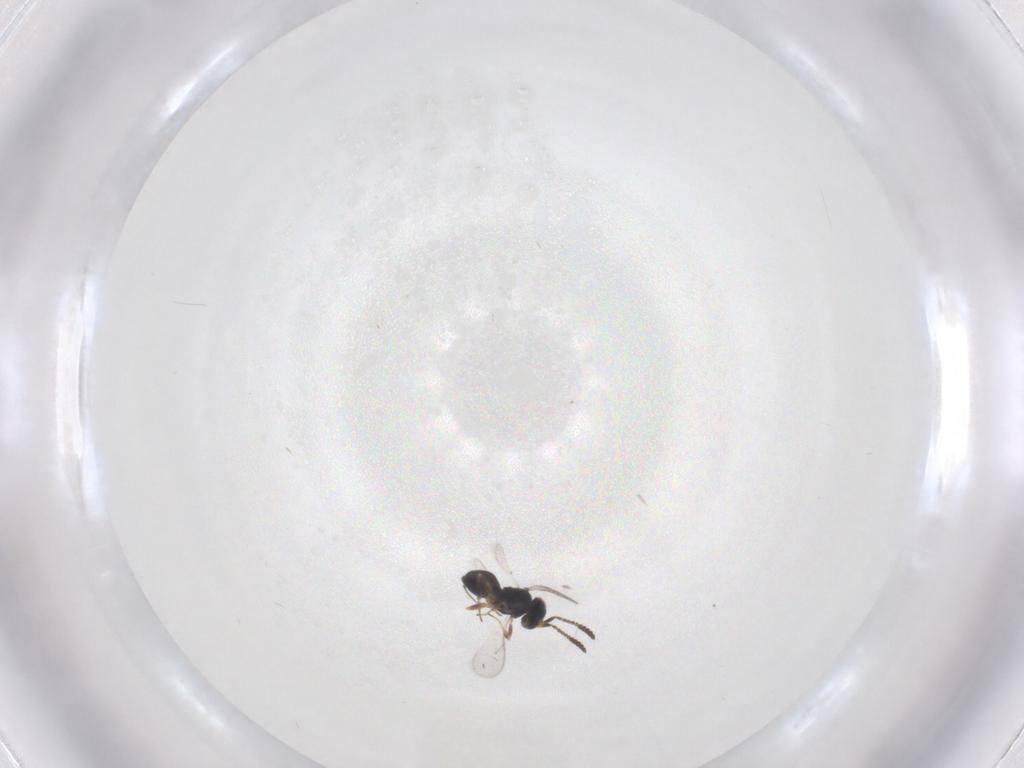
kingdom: Animalia
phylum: Arthropoda
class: Insecta
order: Hymenoptera
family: Scelionidae
